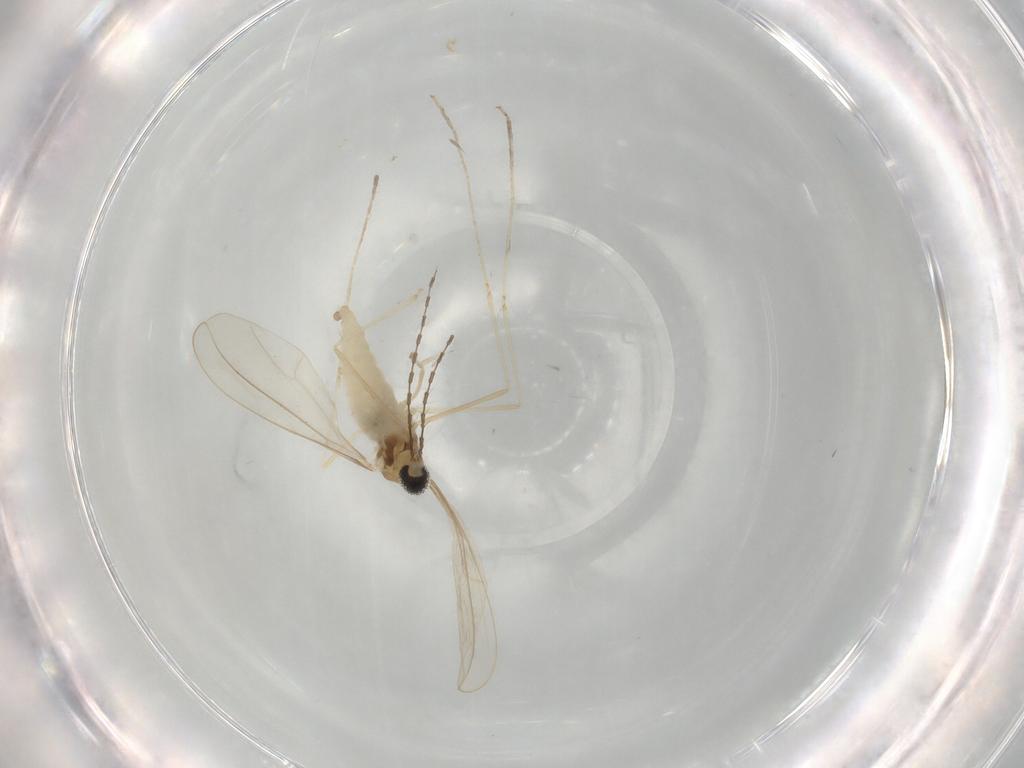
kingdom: Animalia
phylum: Arthropoda
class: Insecta
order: Diptera
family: Cecidomyiidae
